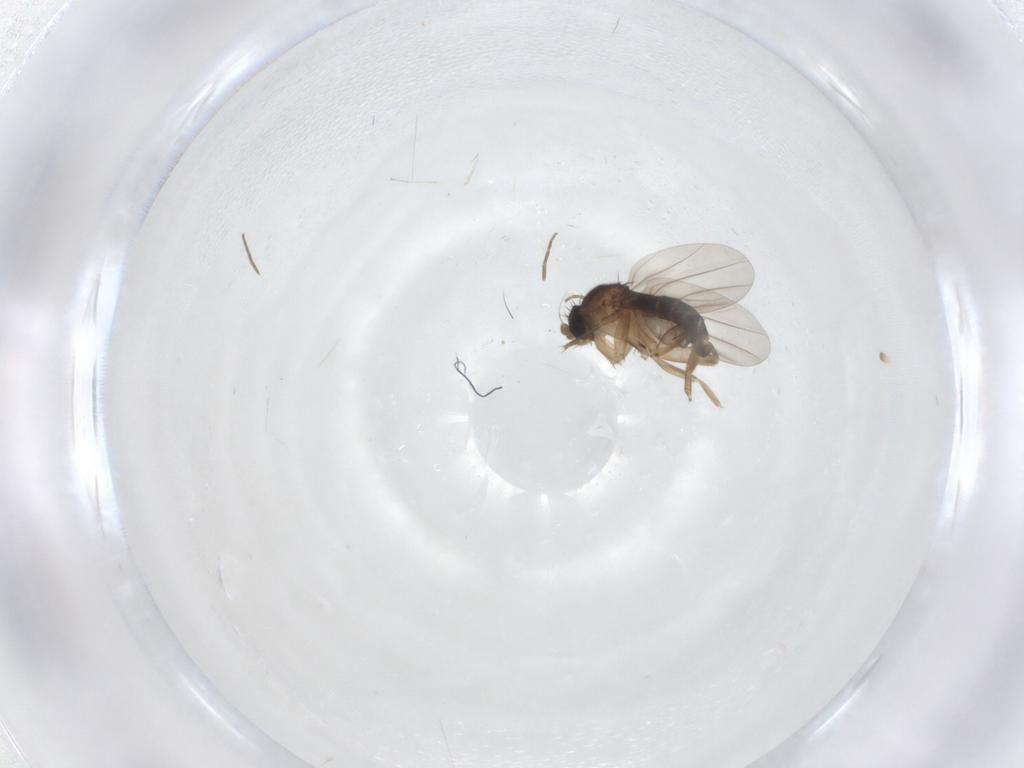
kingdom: Animalia
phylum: Arthropoda
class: Insecta
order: Diptera
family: Cecidomyiidae
